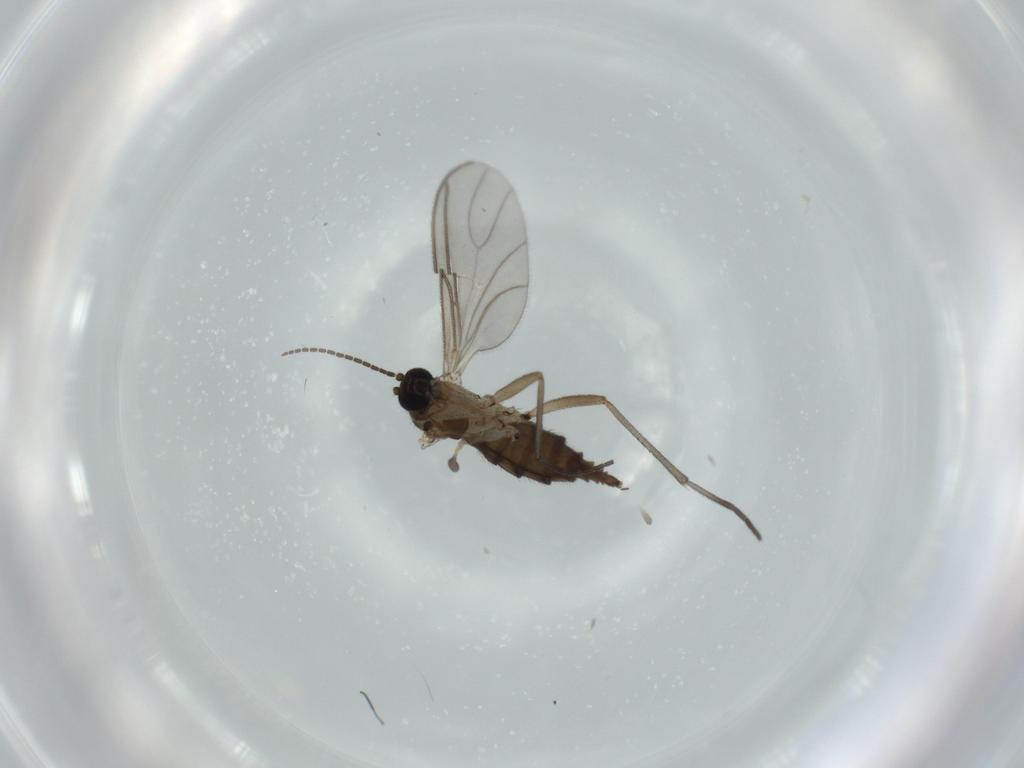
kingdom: Animalia
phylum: Arthropoda
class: Insecta
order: Diptera
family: Sciaridae
